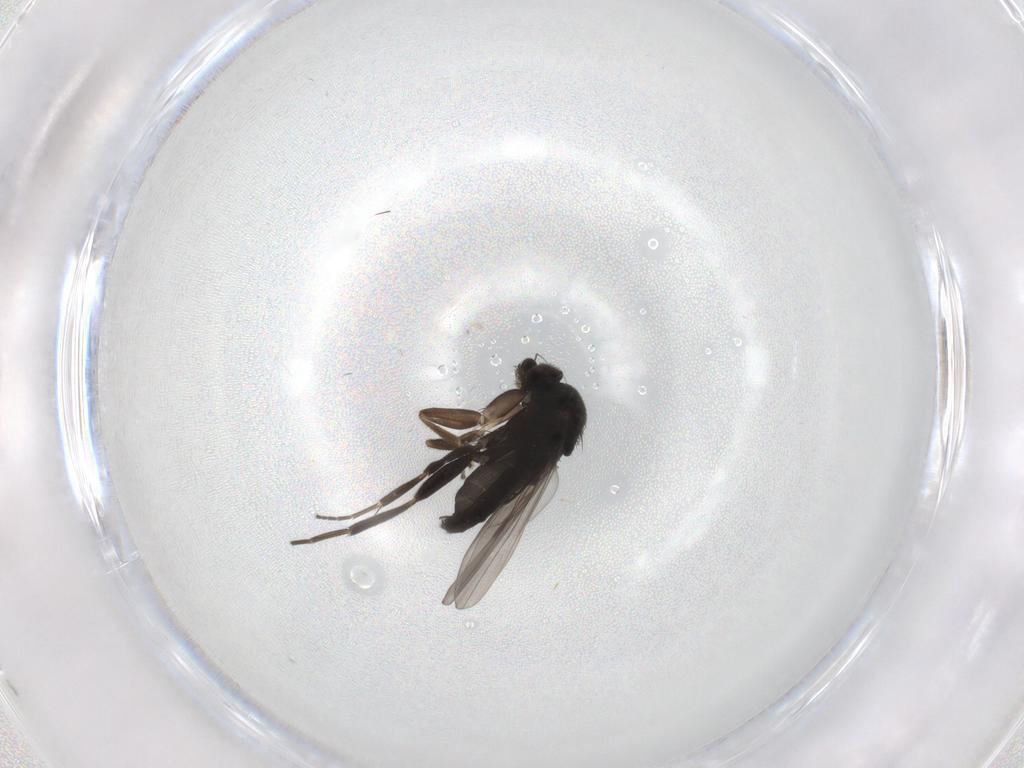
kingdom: Animalia
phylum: Arthropoda
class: Insecta
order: Diptera
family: Phoridae
